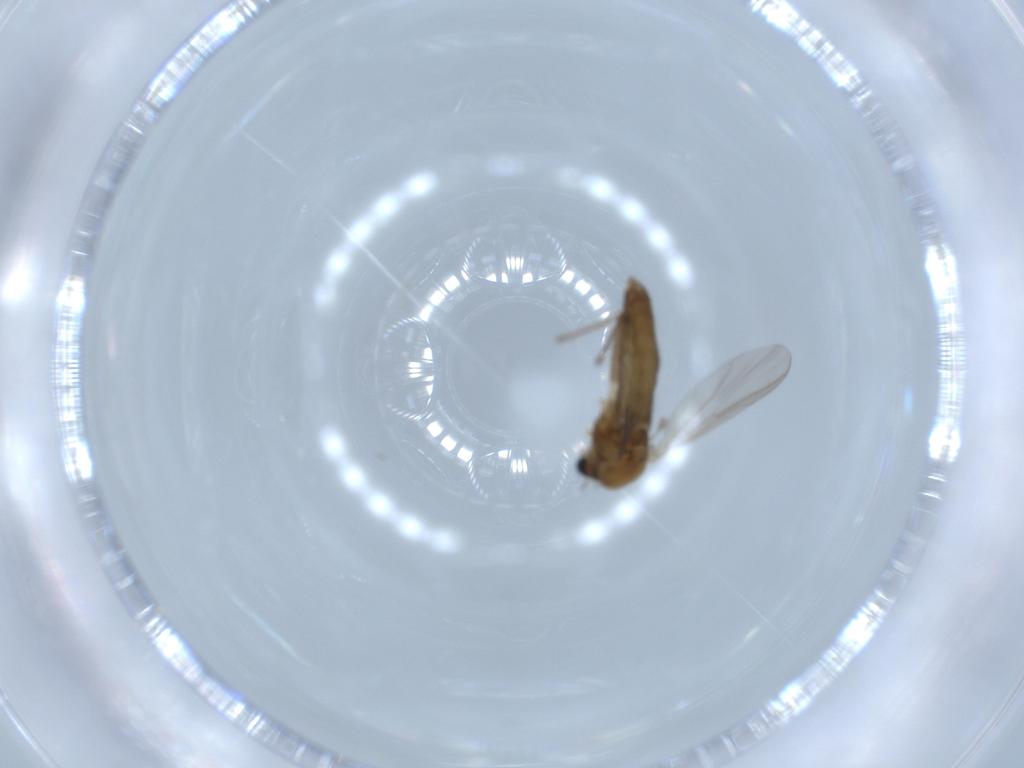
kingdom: Animalia
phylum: Arthropoda
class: Insecta
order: Diptera
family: Chironomidae
